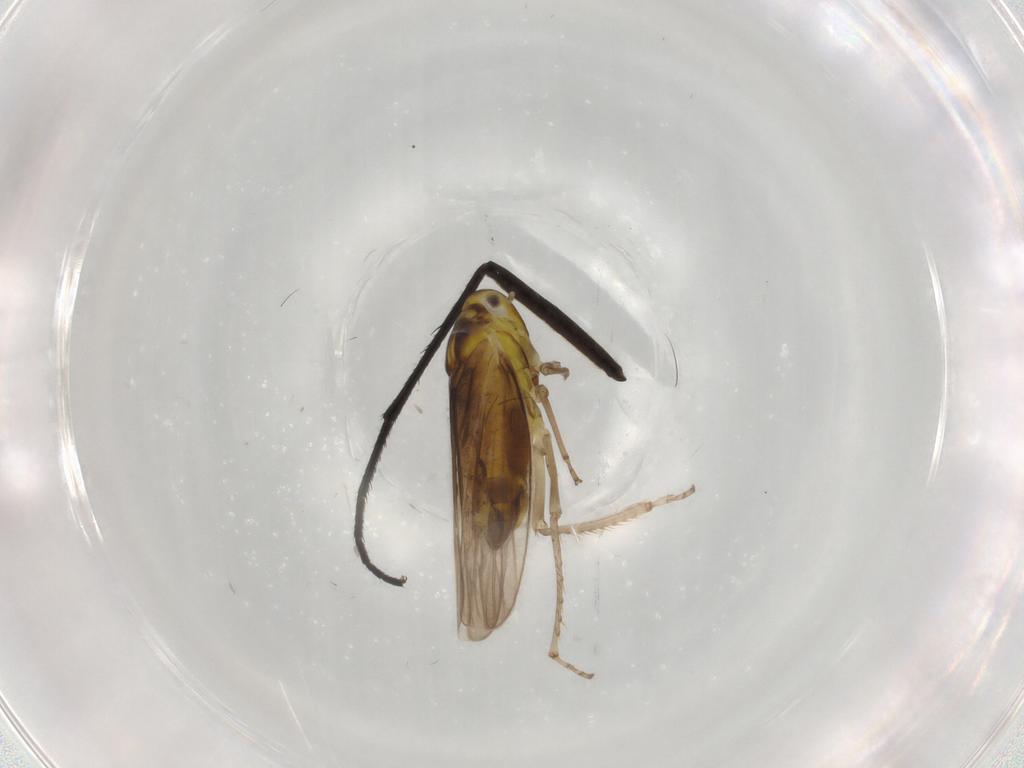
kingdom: Animalia
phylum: Arthropoda
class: Insecta
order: Hemiptera
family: Cicadellidae
